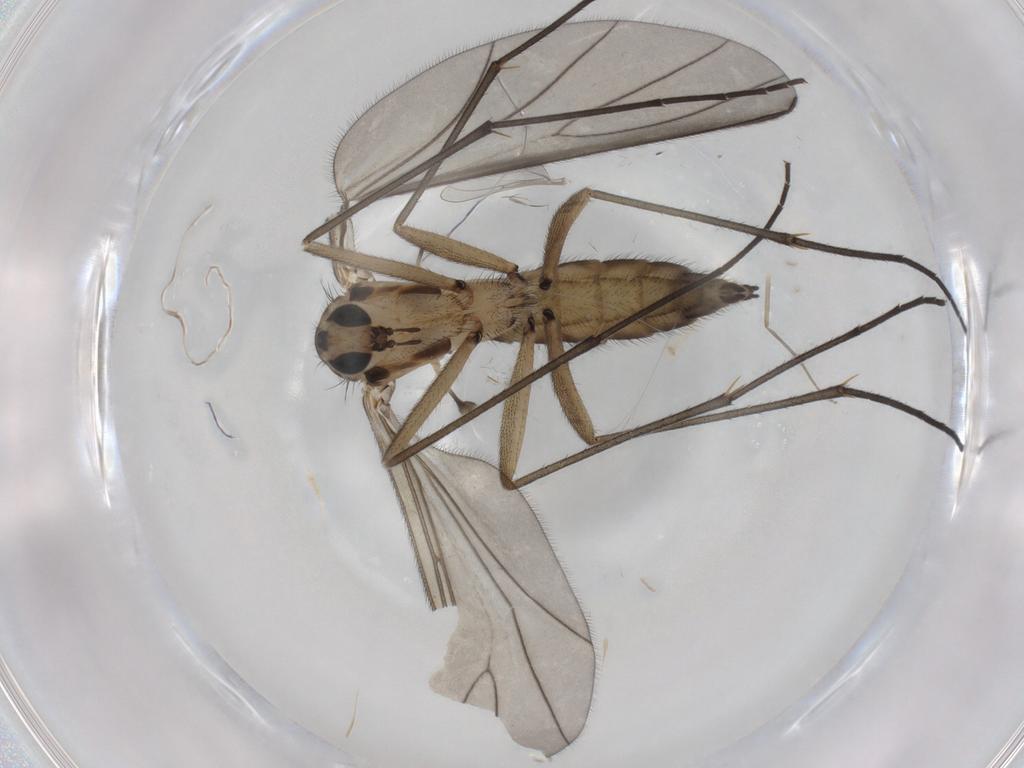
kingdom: Animalia
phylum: Arthropoda
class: Insecta
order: Diptera
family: Sciaridae
